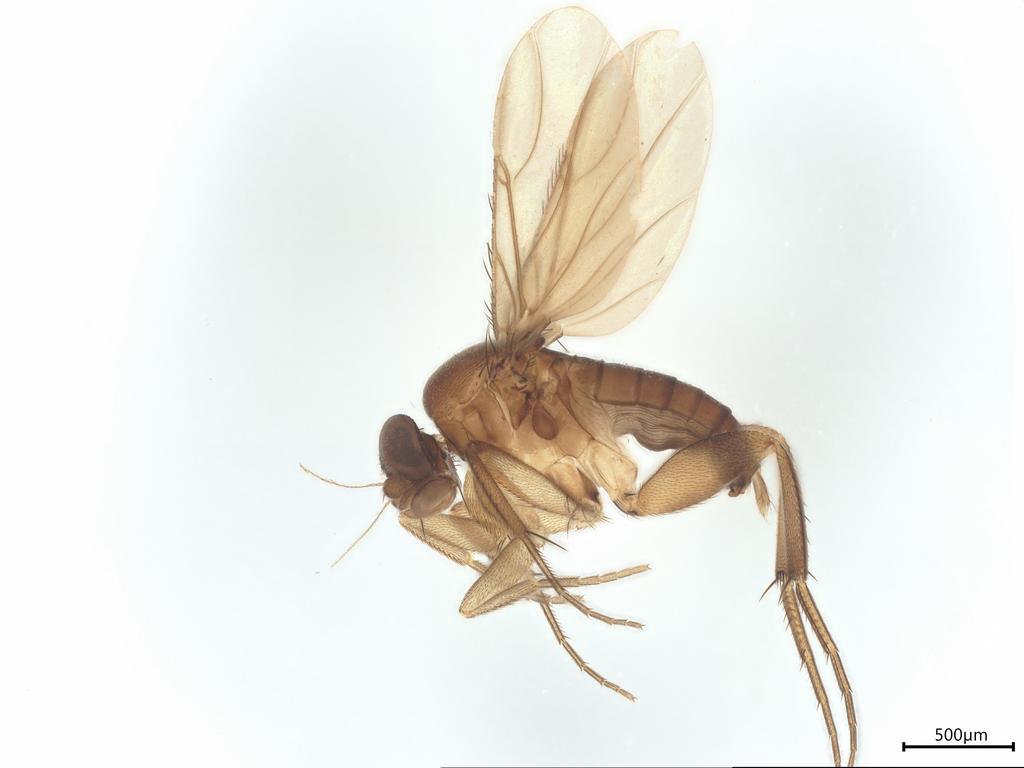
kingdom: Animalia
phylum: Arthropoda
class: Insecta
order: Diptera
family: Phoridae
